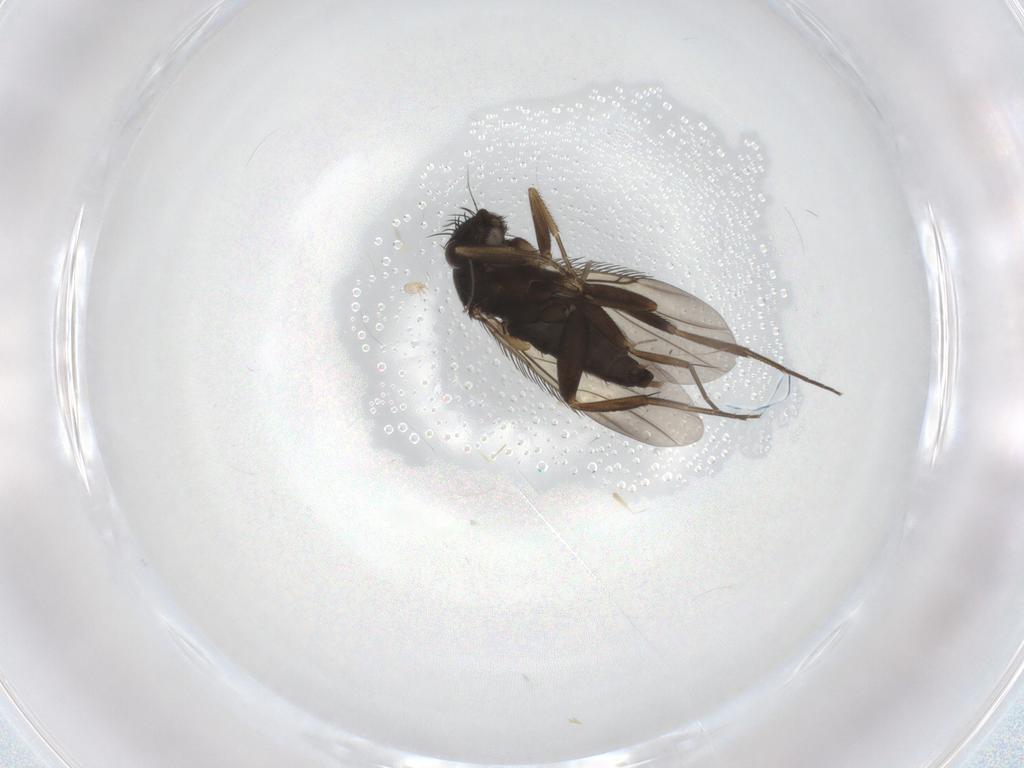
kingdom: Animalia
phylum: Arthropoda
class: Insecta
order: Diptera
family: Phoridae
